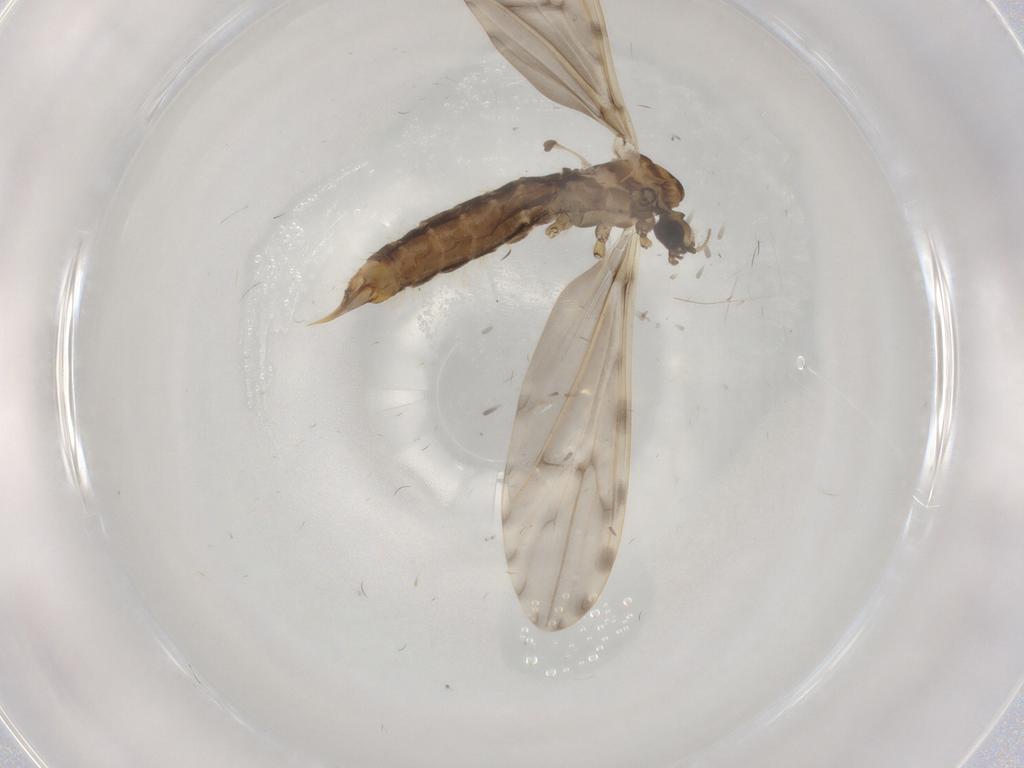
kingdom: Animalia
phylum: Arthropoda
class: Insecta
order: Diptera
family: Limoniidae
